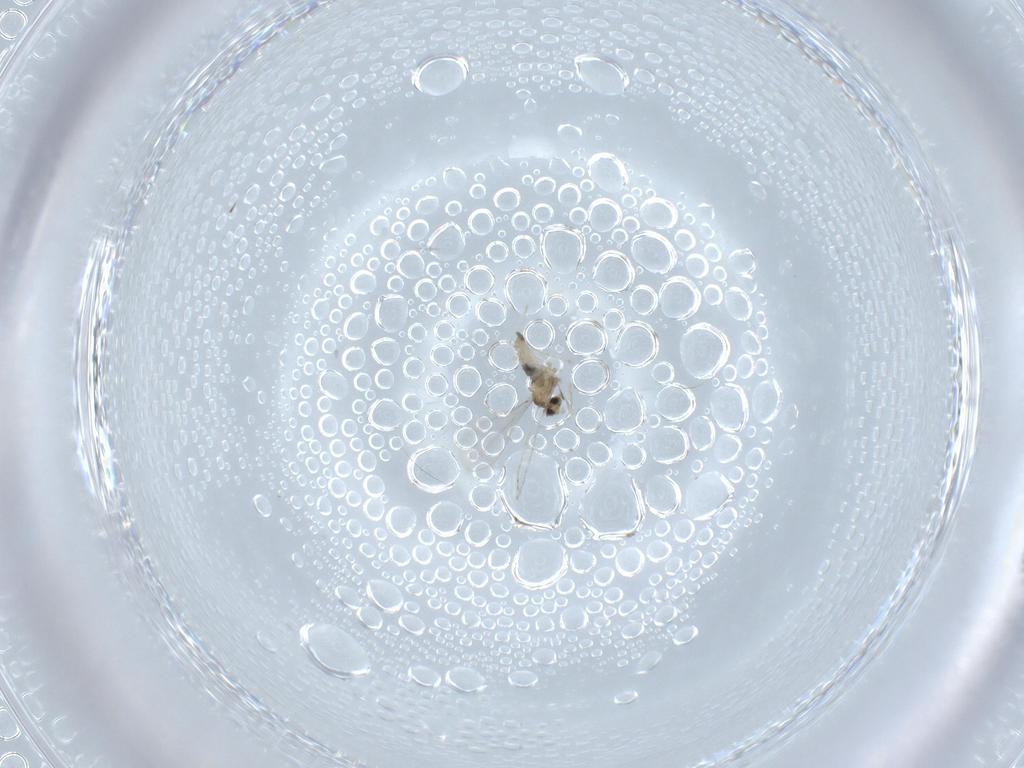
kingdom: Animalia
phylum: Arthropoda
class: Insecta
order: Diptera
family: Cecidomyiidae
